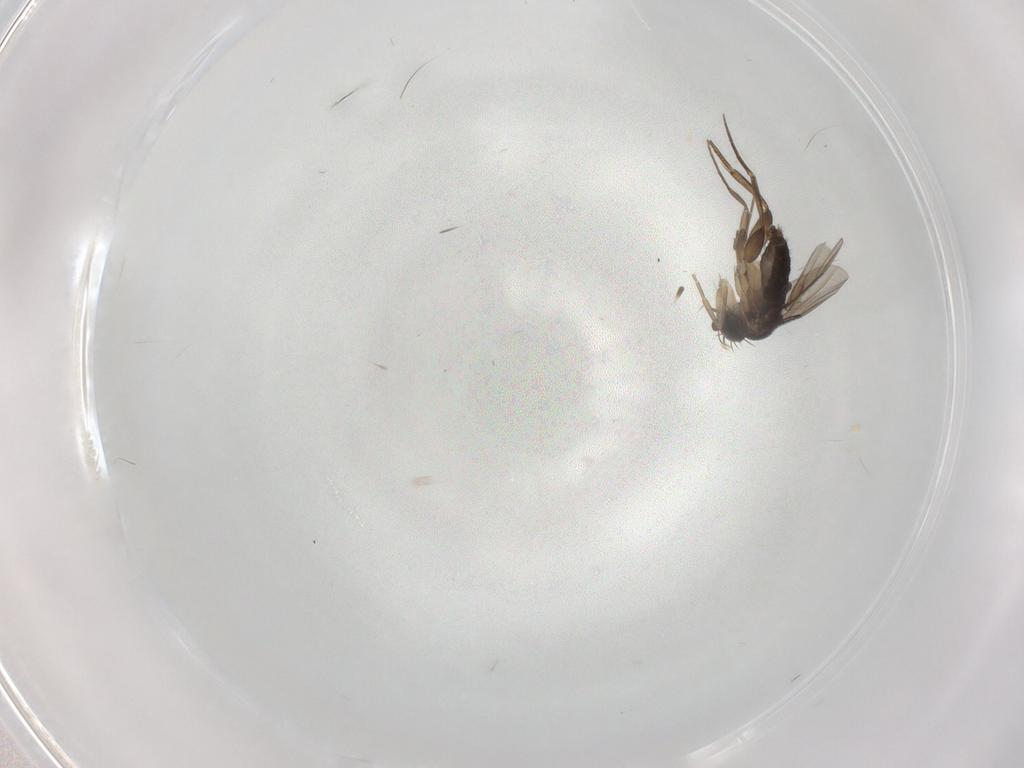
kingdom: Animalia
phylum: Arthropoda
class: Insecta
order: Diptera
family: Phoridae
